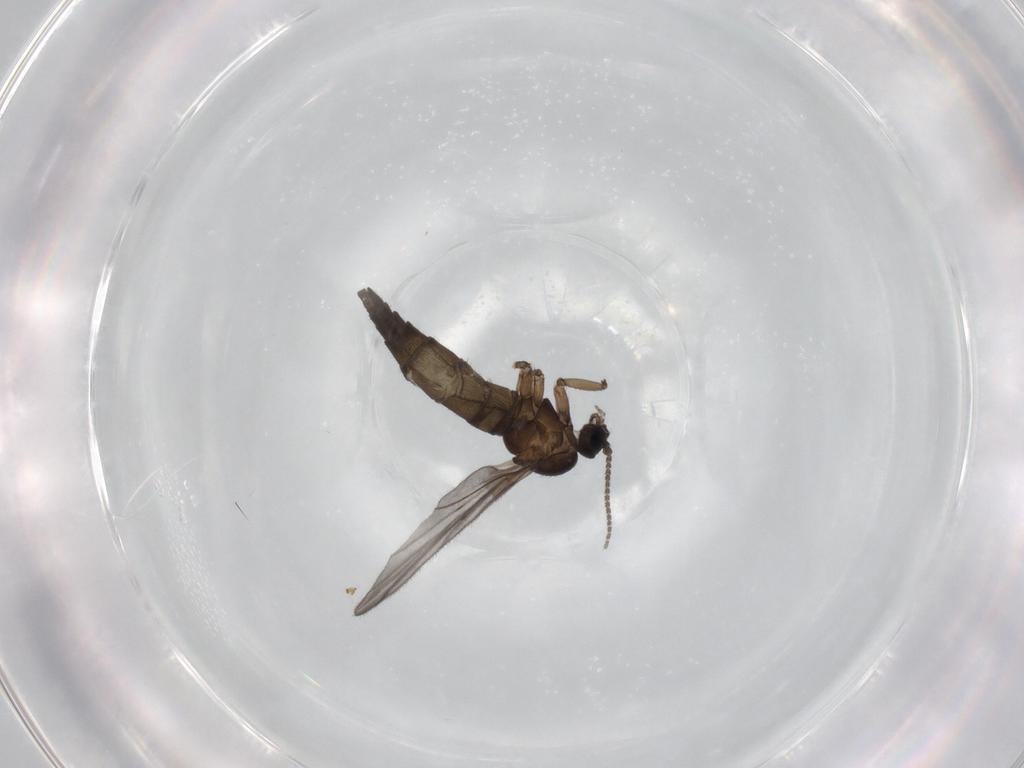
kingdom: Animalia
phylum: Arthropoda
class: Insecta
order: Diptera
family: Sciaridae
